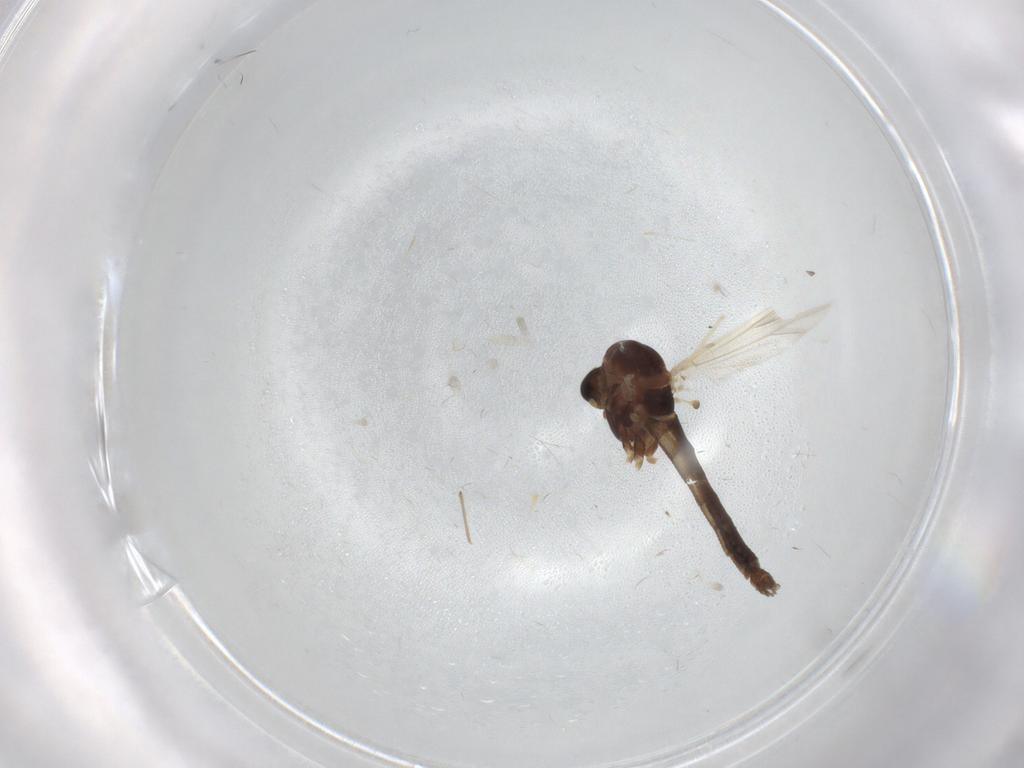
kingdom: Animalia
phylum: Arthropoda
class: Insecta
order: Diptera
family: Chironomidae
